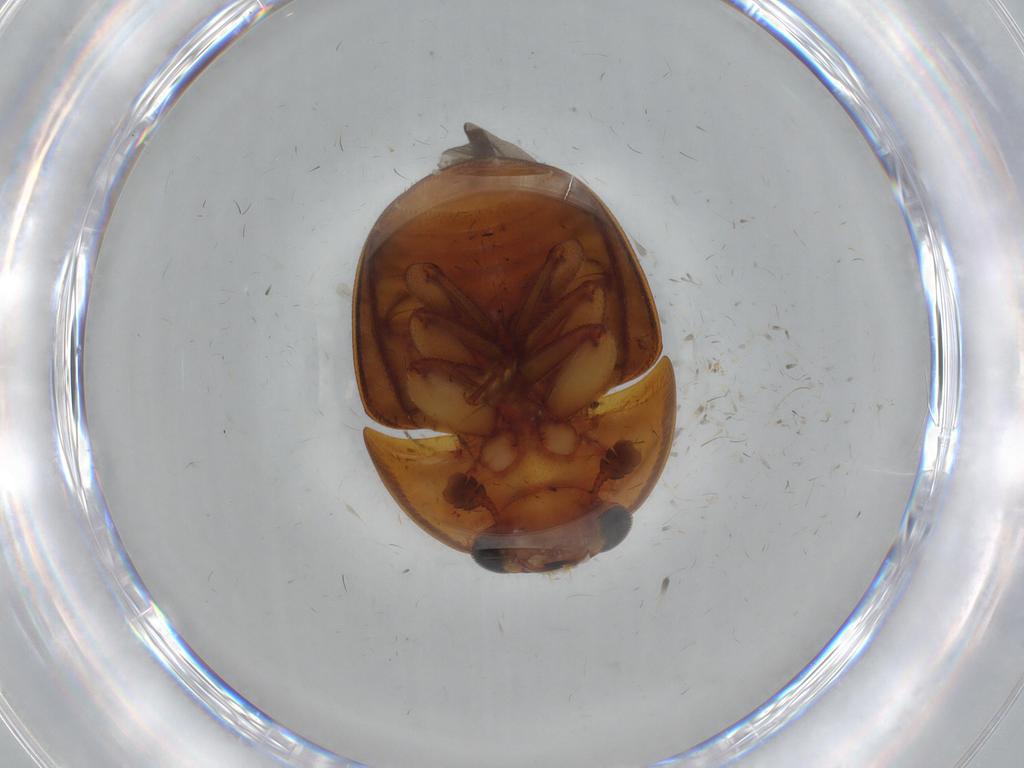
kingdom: Animalia
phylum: Arthropoda
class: Insecta
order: Coleoptera
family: Nitidulidae
